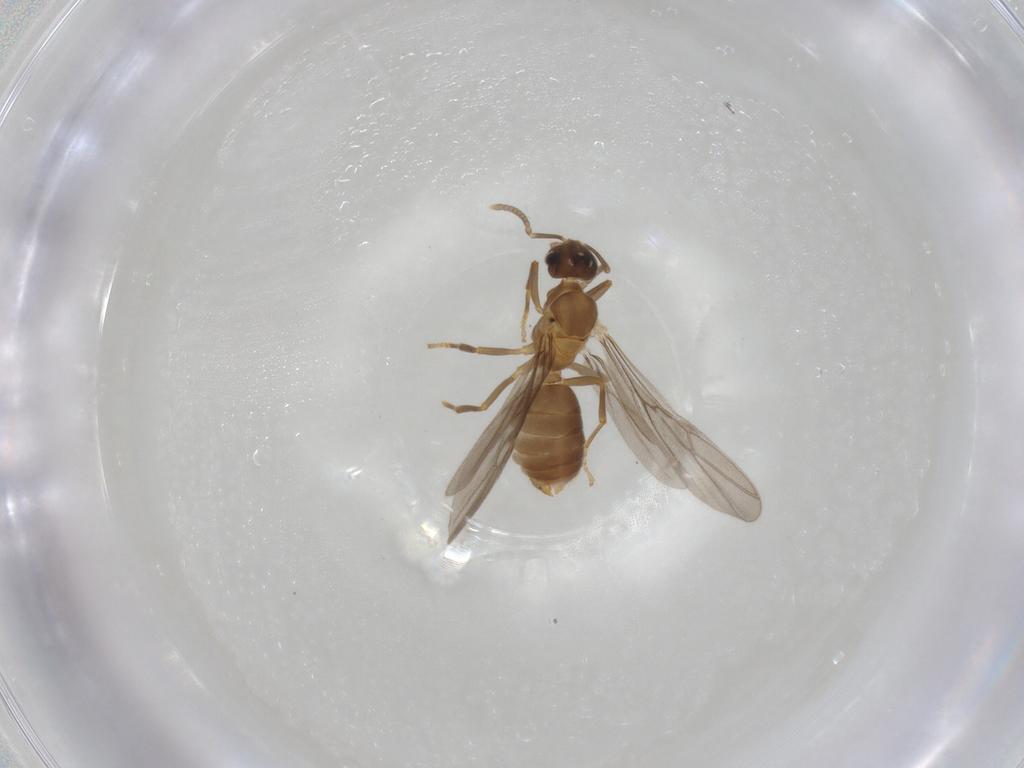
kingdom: Animalia
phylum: Arthropoda
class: Insecta
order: Hymenoptera
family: Formicidae
